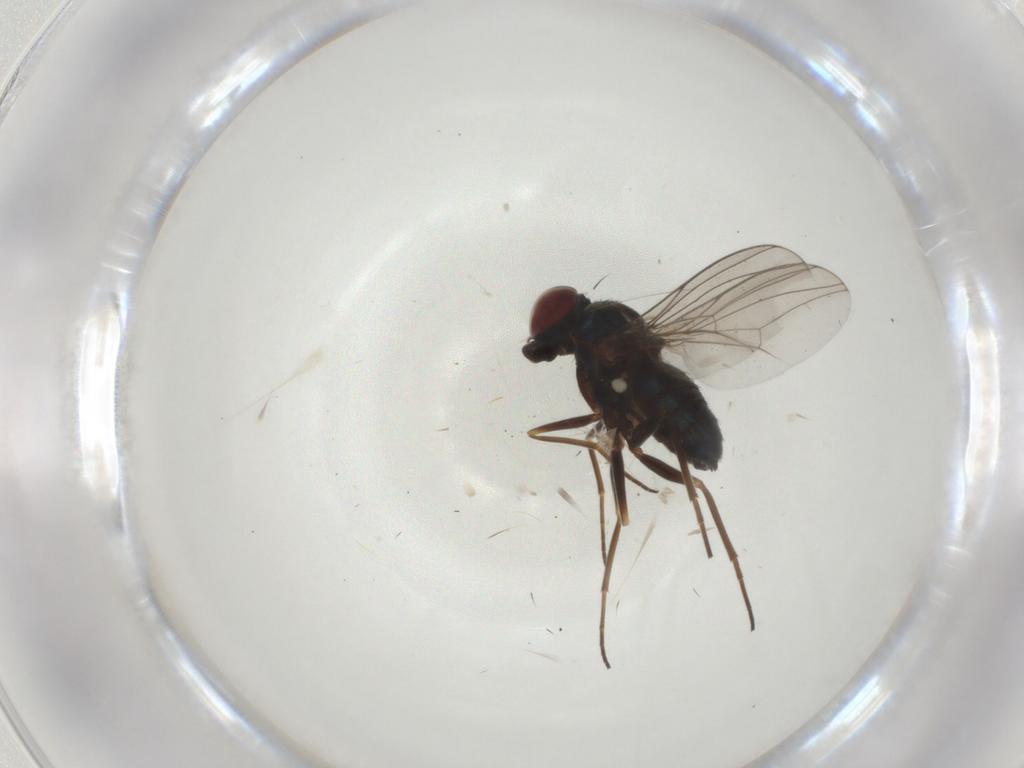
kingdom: Animalia
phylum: Arthropoda
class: Insecta
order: Diptera
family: Dolichopodidae
